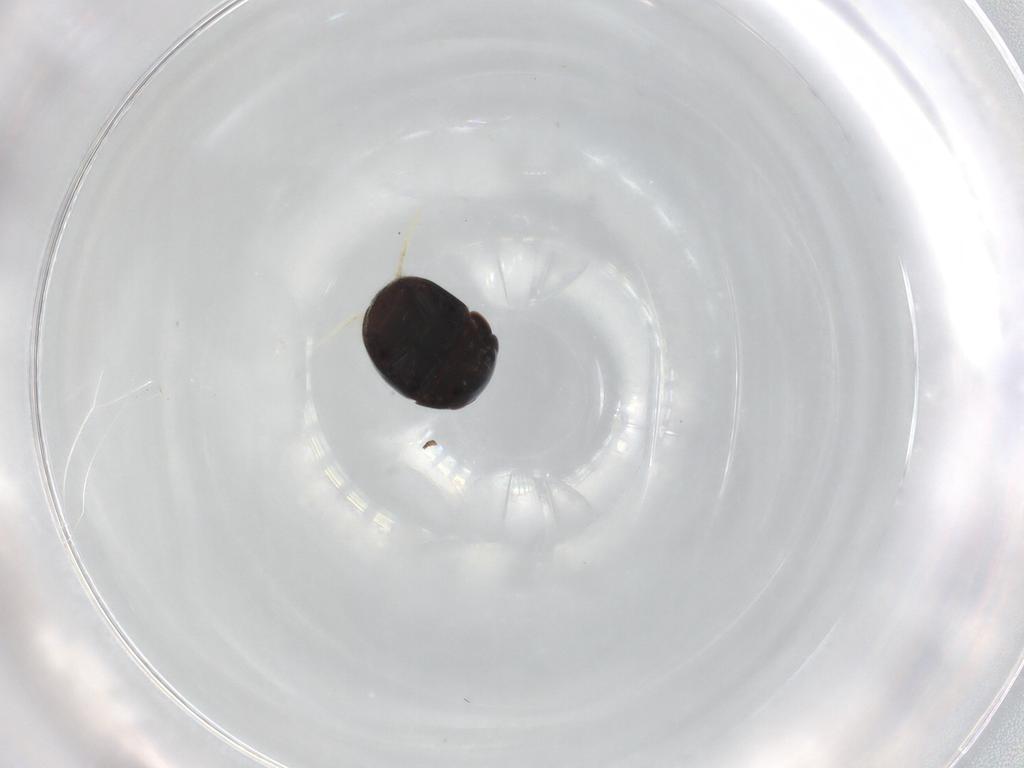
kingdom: Animalia
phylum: Arthropoda
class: Insecta
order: Coleoptera
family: Cybocephalidae
